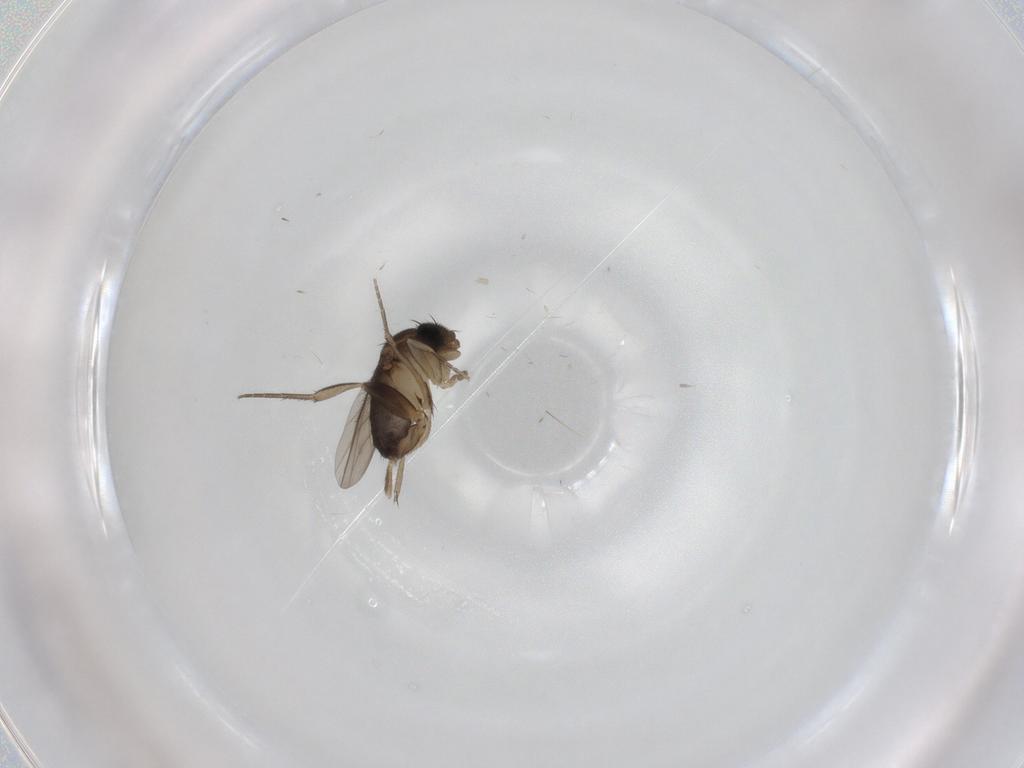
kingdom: Animalia
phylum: Arthropoda
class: Insecta
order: Diptera
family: Phoridae
